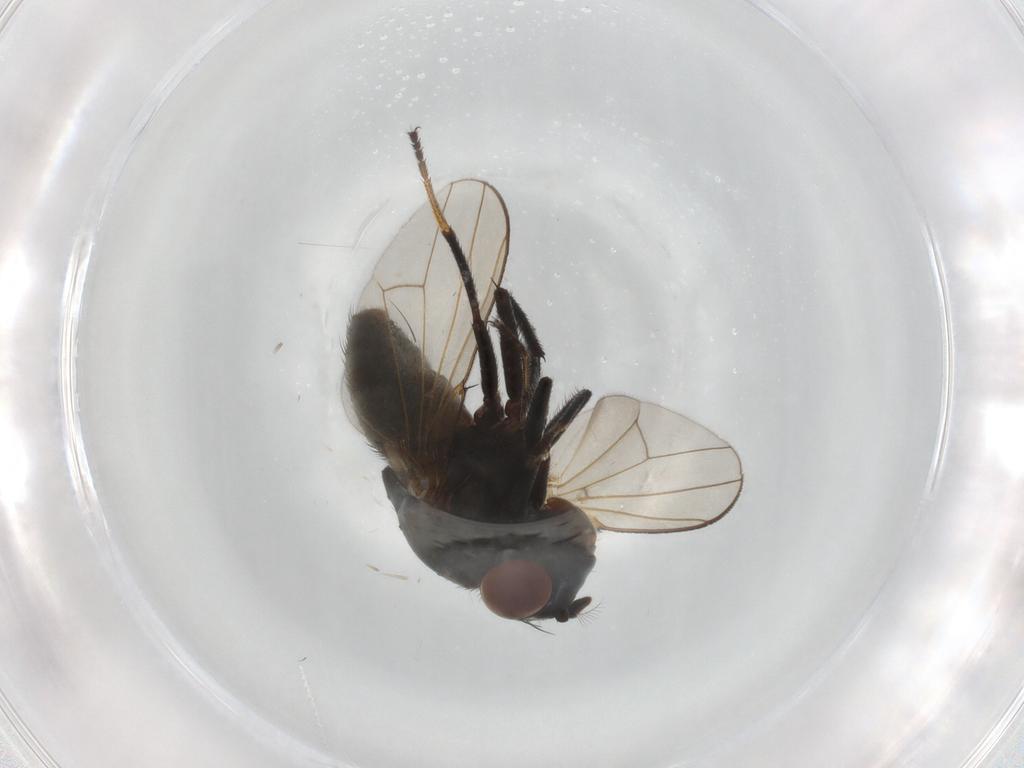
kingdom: Animalia
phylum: Arthropoda
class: Insecta
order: Diptera
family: Ephydridae
